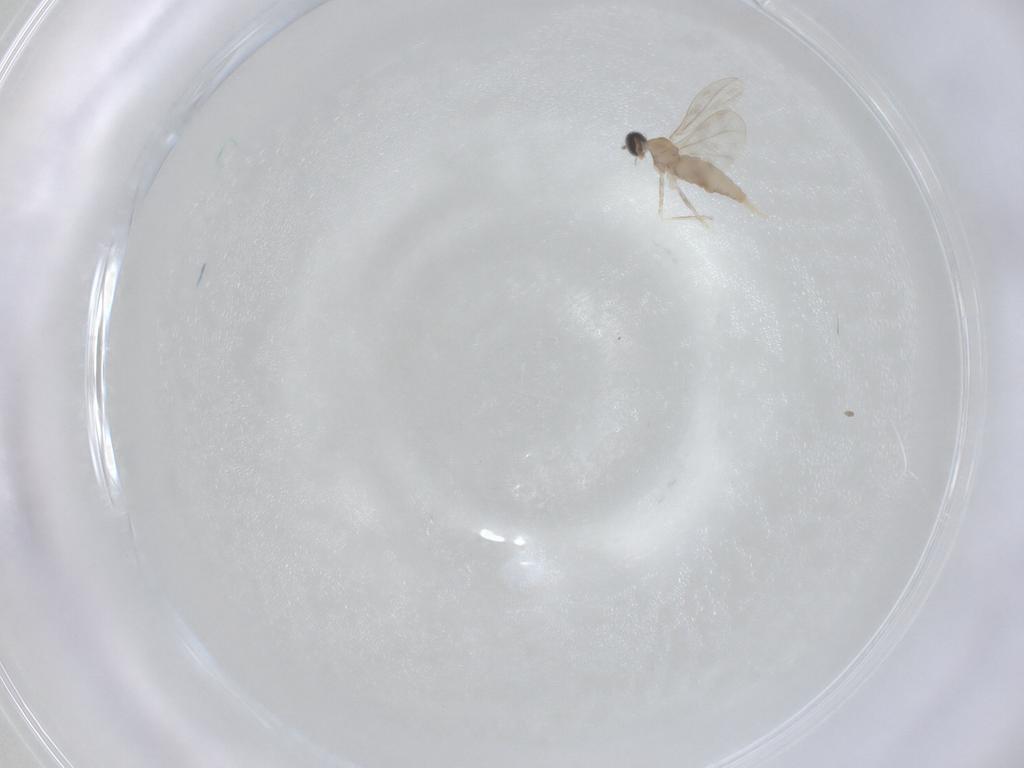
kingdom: Animalia
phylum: Arthropoda
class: Insecta
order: Diptera
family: Cecidomyiidae
